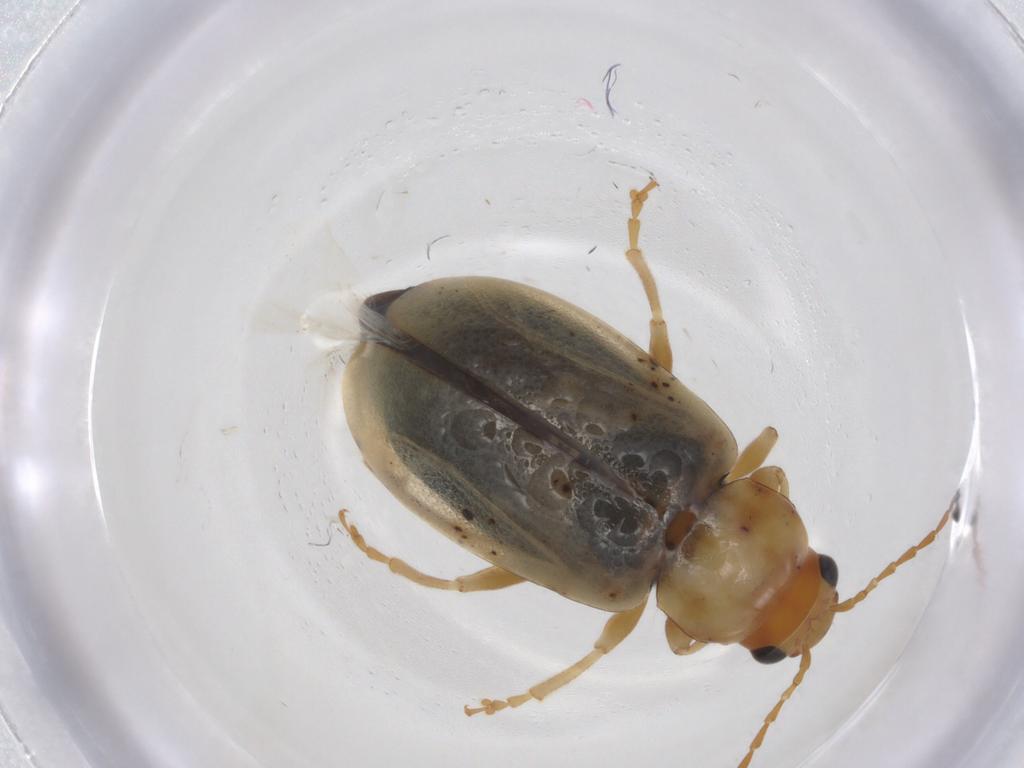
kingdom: Animalia
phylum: Arthropoda
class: Insecta
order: Coleoptera
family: Chrysomelidae
